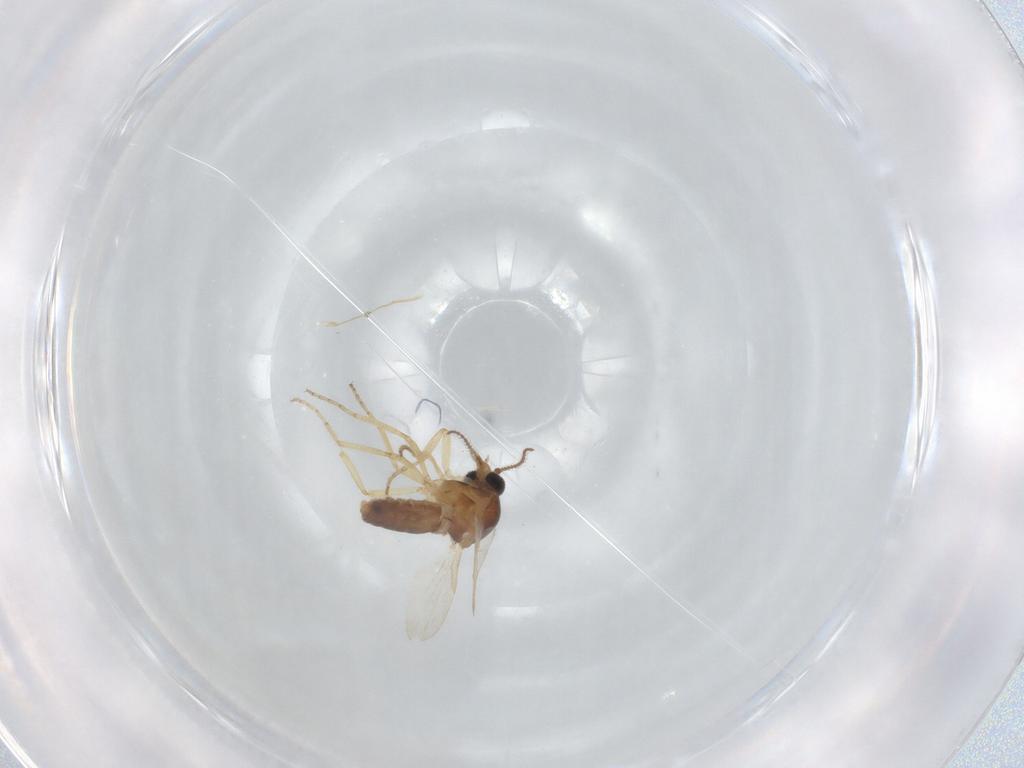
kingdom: Animalia
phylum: Arthropoda
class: Insecta
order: Diptera
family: Ceratopogonidae
